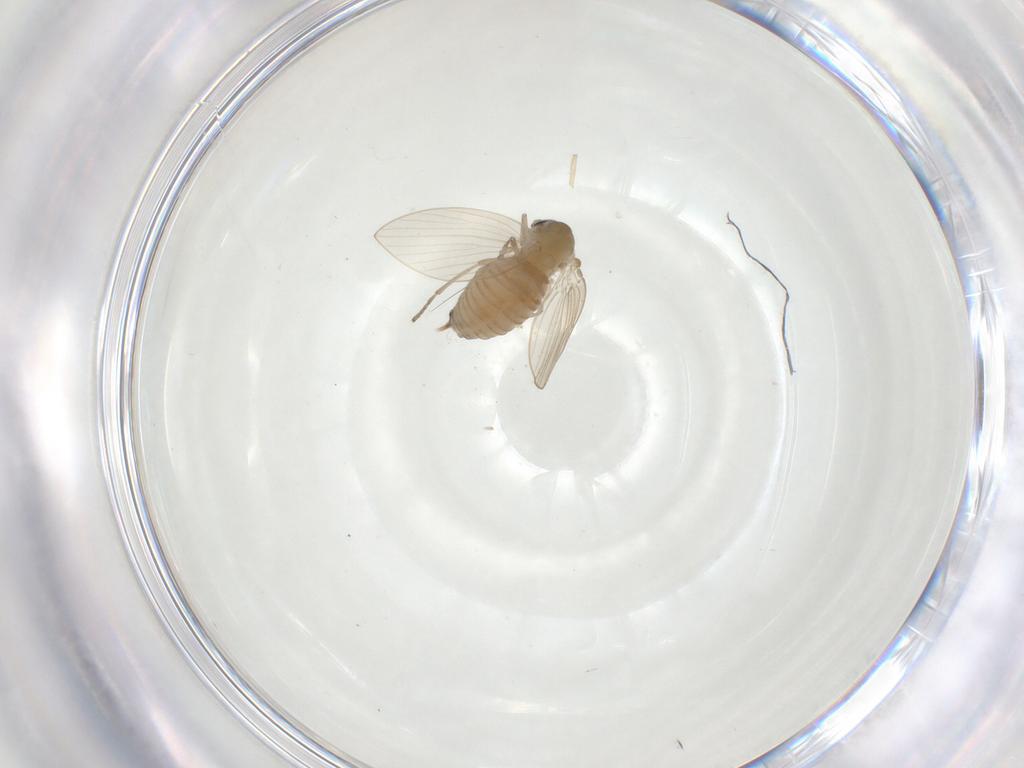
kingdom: Animalia
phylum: Arthropoda
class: Insecta
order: Diptera
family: Psychodidae
